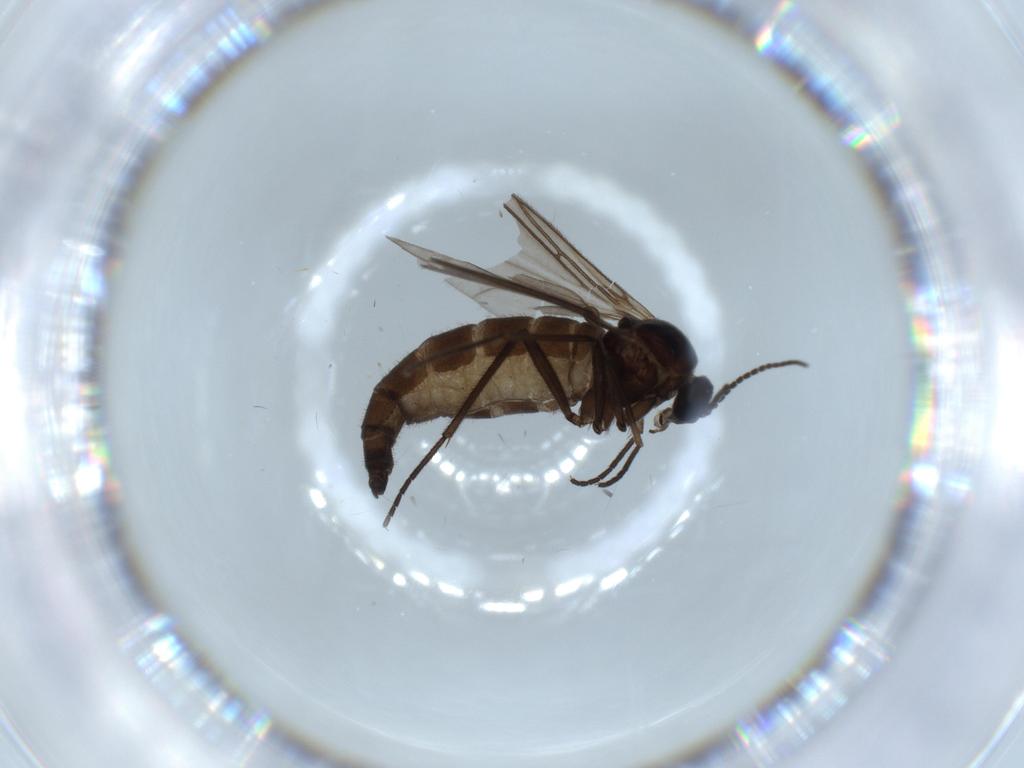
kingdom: Animalia
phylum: Arthropoda
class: Insecta
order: Diptera
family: Sciaridae
